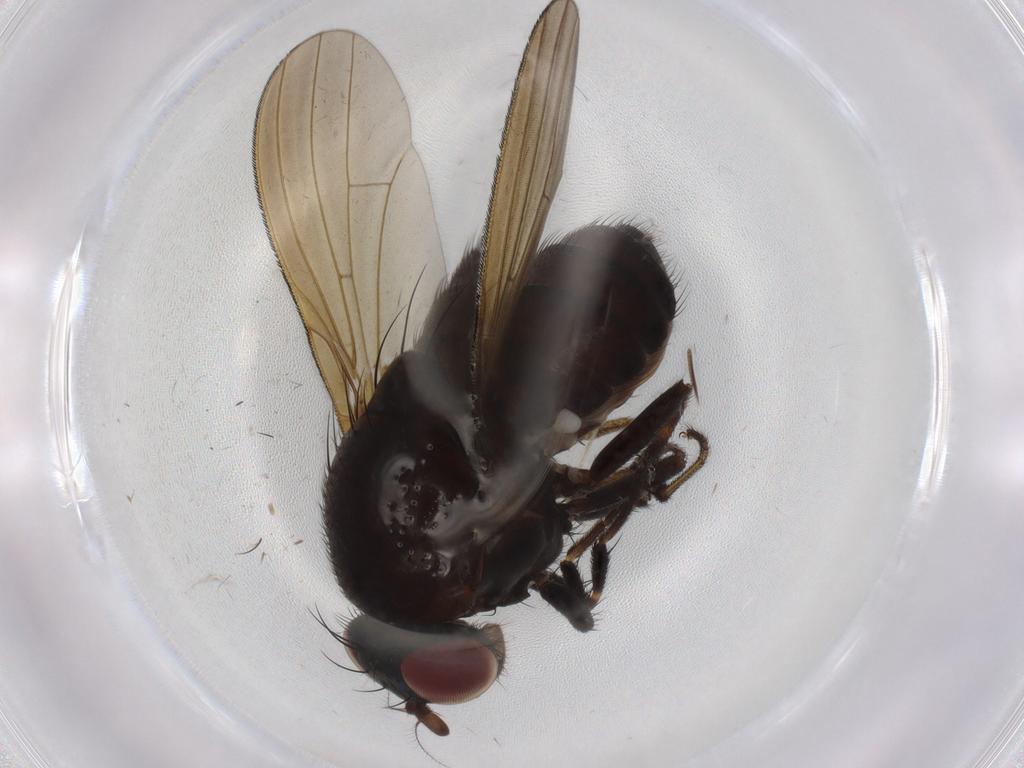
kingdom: Animalia
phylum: Arthropoda
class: Insecta
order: Diptera
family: Lauxaniidae
